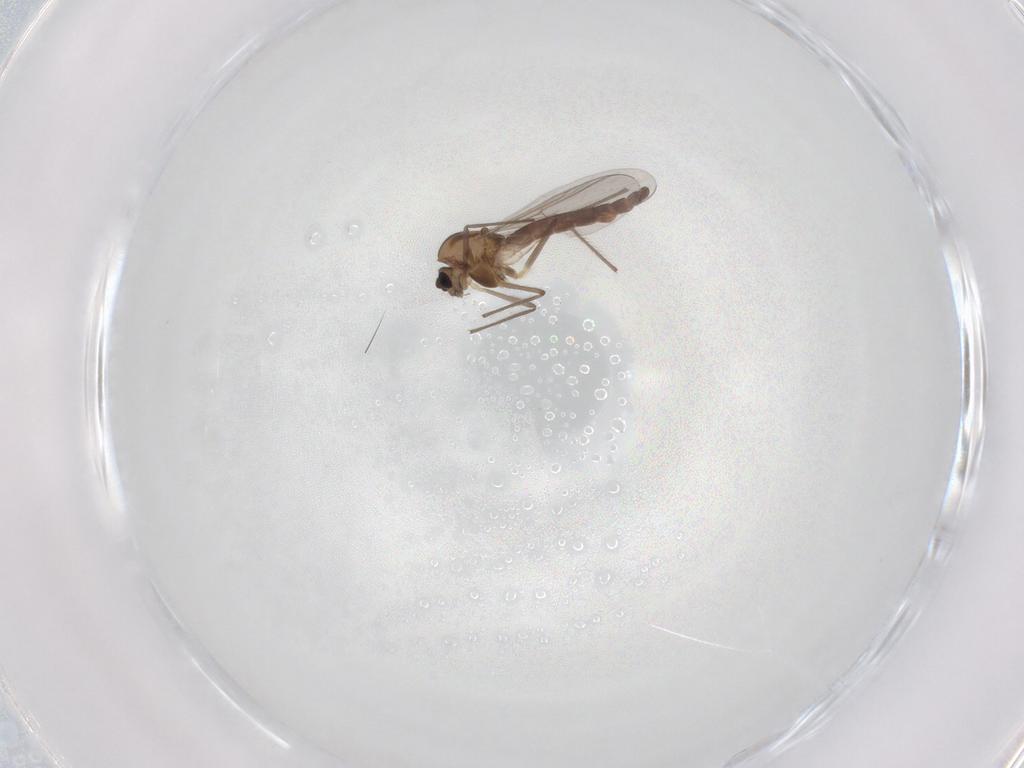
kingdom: Animalia
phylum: Arthropoda
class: Insecta
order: Diptera
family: Chironomidae
